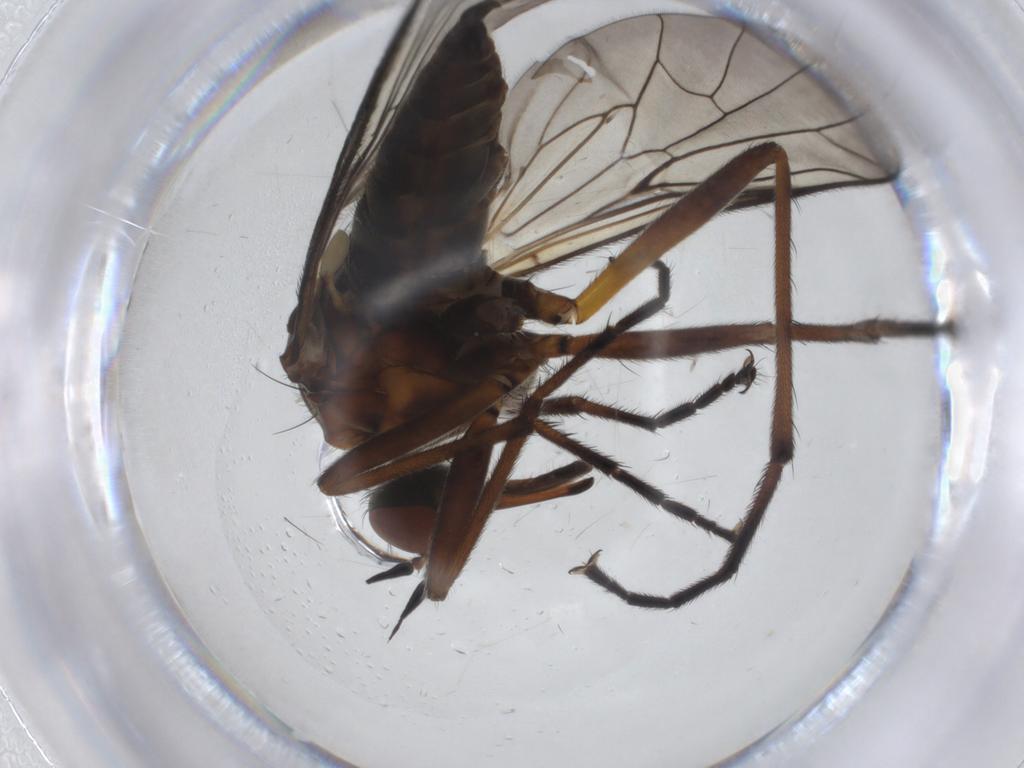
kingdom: Animalia
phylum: Arthropoda
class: Insecta
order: Diptera
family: Empididae
